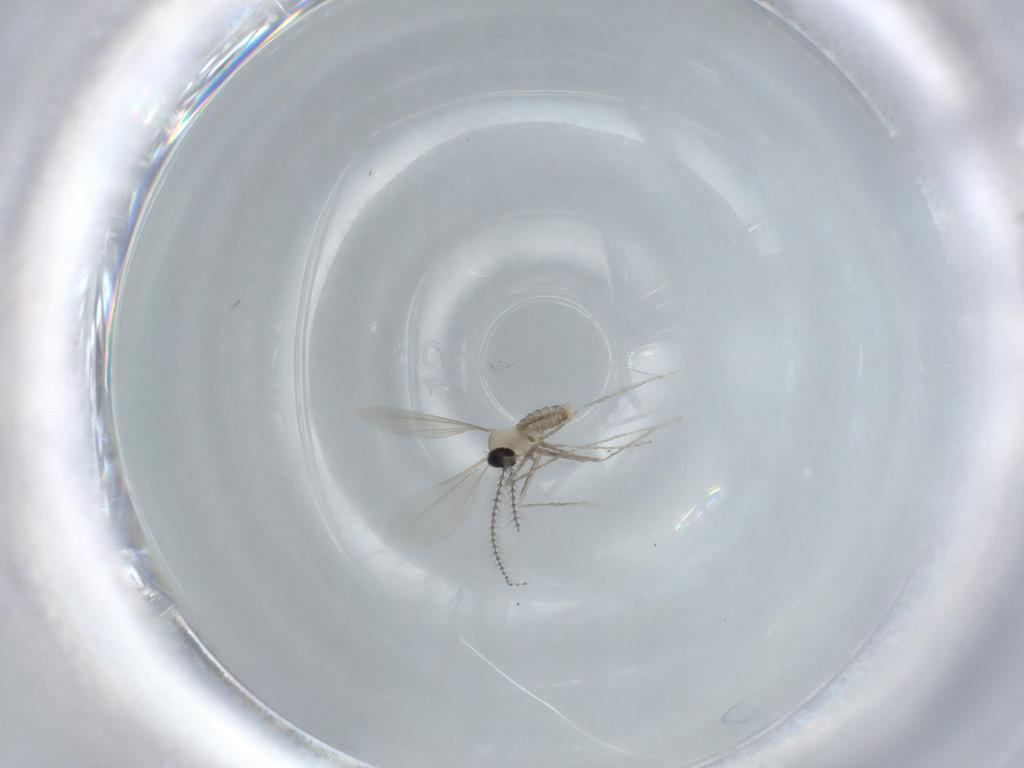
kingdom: Animalia
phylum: Arthropoda
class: Insecta
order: Diptera
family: Cecidomyiidae
